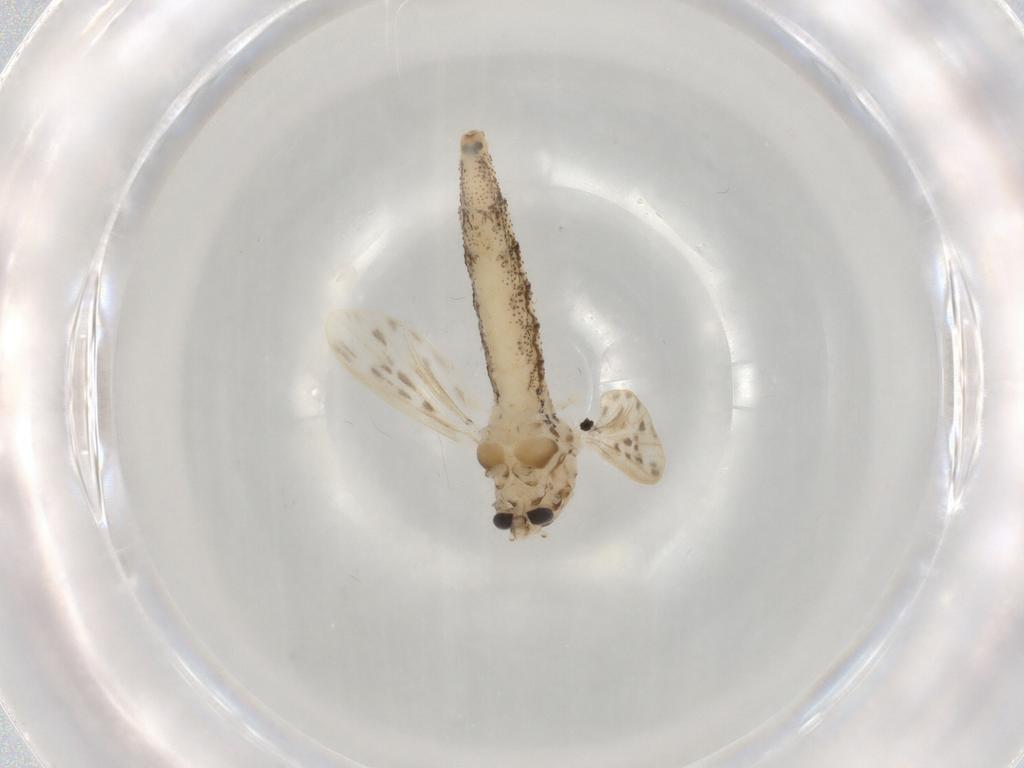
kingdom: Animalia
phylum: Arthropoda
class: Insecta
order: Diptera
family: Chaoboridae
